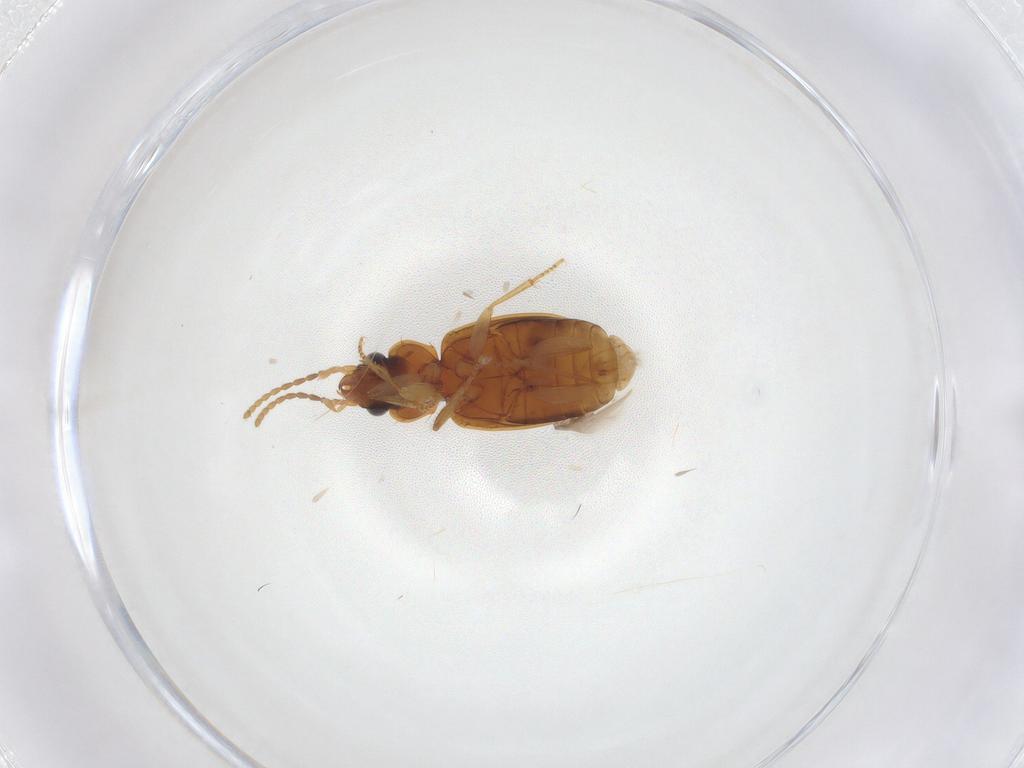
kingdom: Animalia
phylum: Arthropoda
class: Insecta
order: Coleoptera
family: Carabidae
